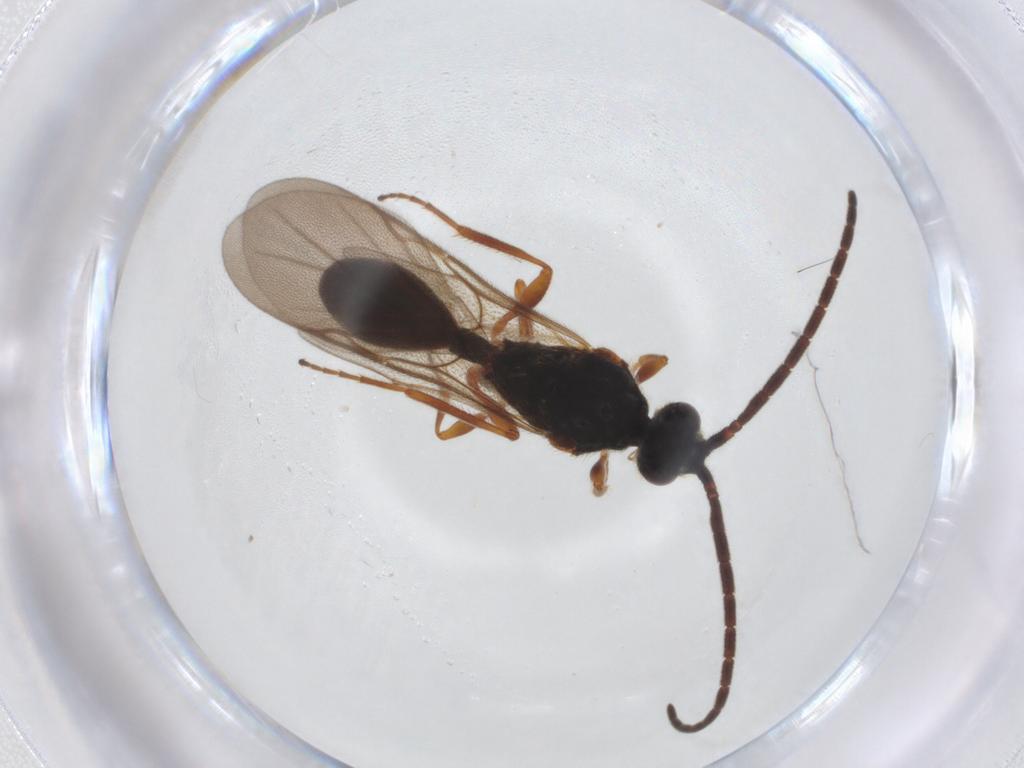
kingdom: Animalia
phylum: Arthropoda
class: Insecta
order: Hymenoptera
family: Diapriidae
